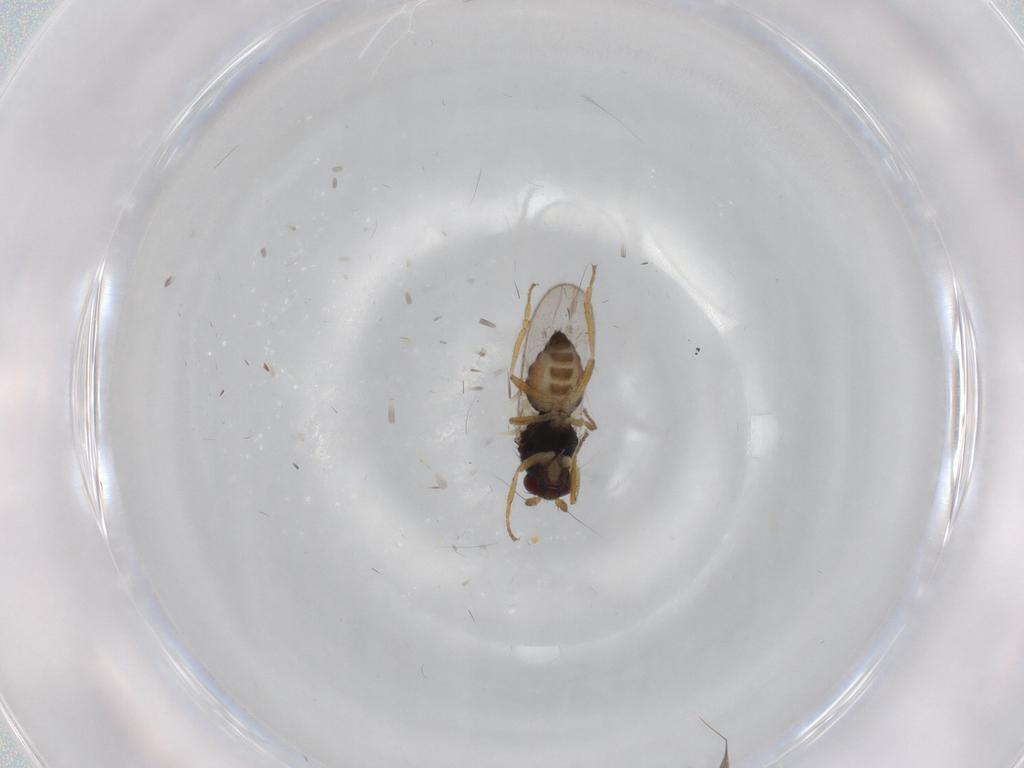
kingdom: Animalia
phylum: Arthropoda
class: Insecta
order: Diptera
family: Sphaeroceridae
